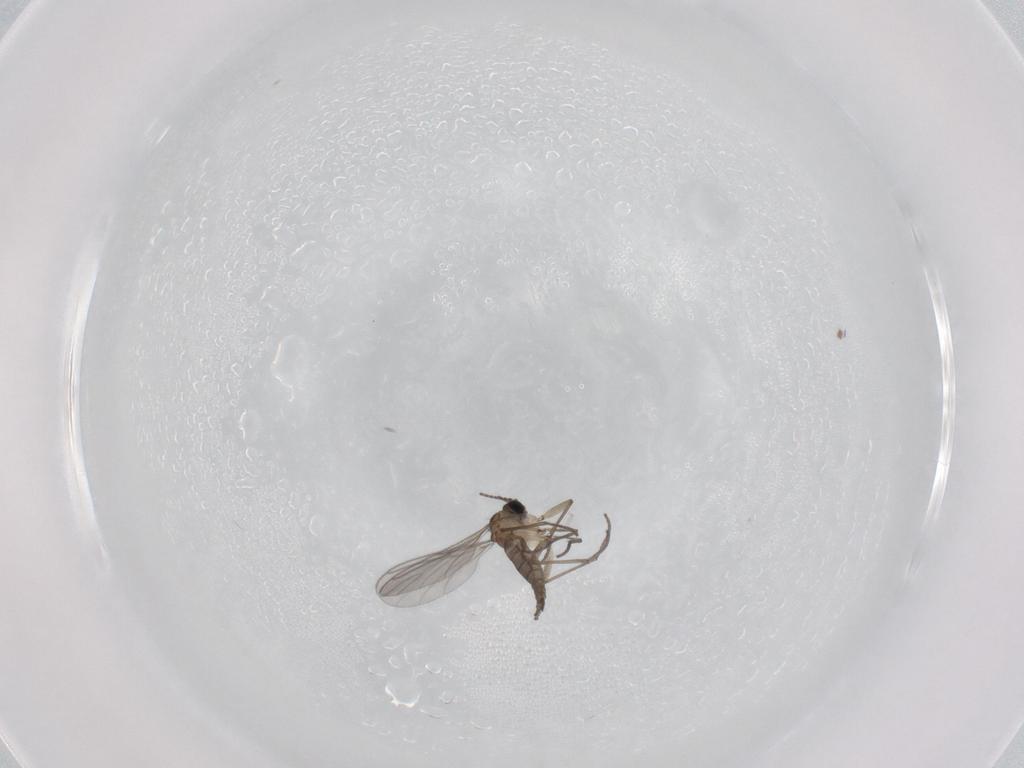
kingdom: Animalia
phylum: Arthropoda
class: Insecta
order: Diptera
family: Sciaridae
